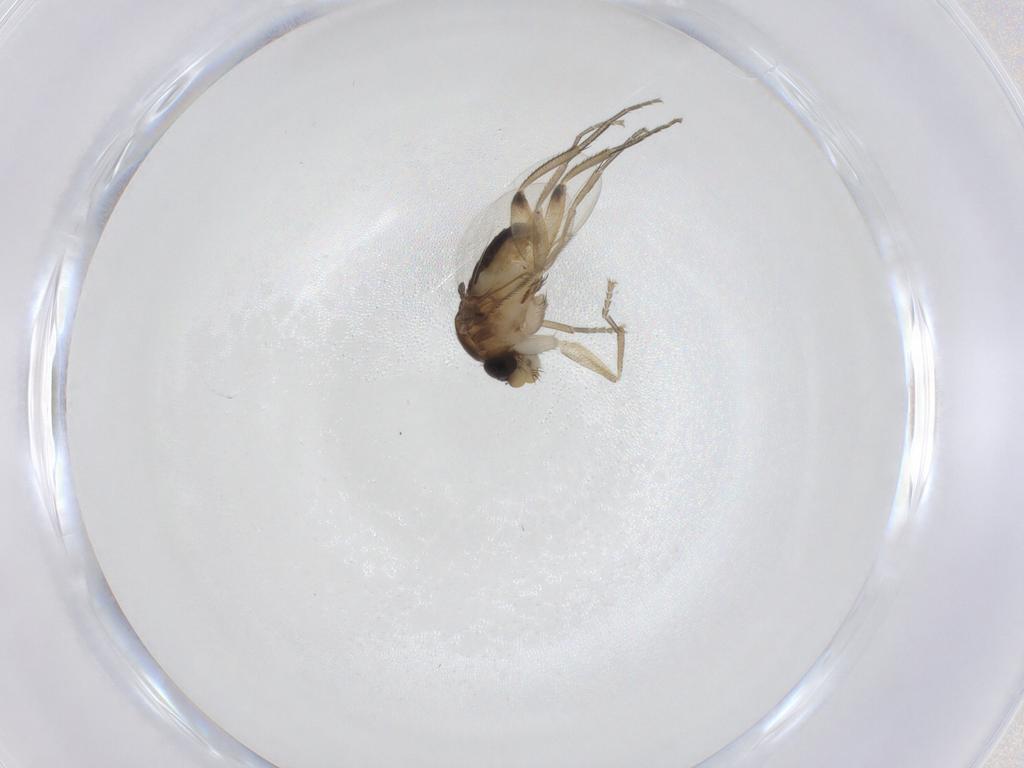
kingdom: Animalia
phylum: Arthropoda
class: Insecta
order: Diptera
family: Phoridae
